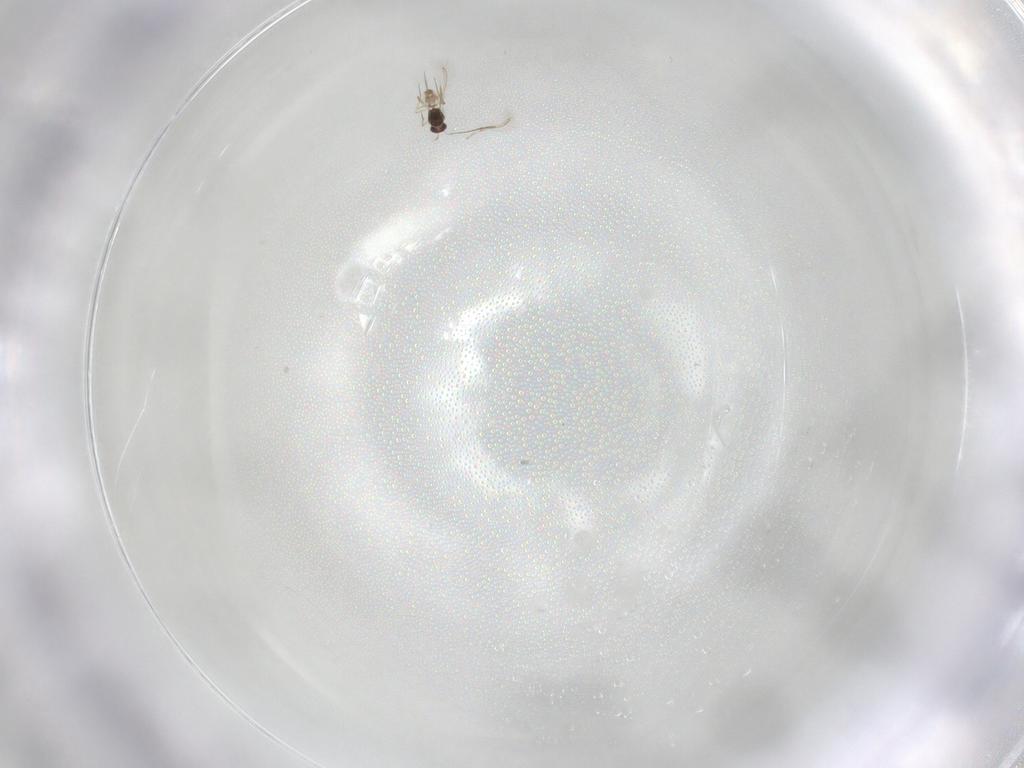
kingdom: Animalia
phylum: Arthropoda
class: Insecta
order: Hymenoptera
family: Mymaridae
